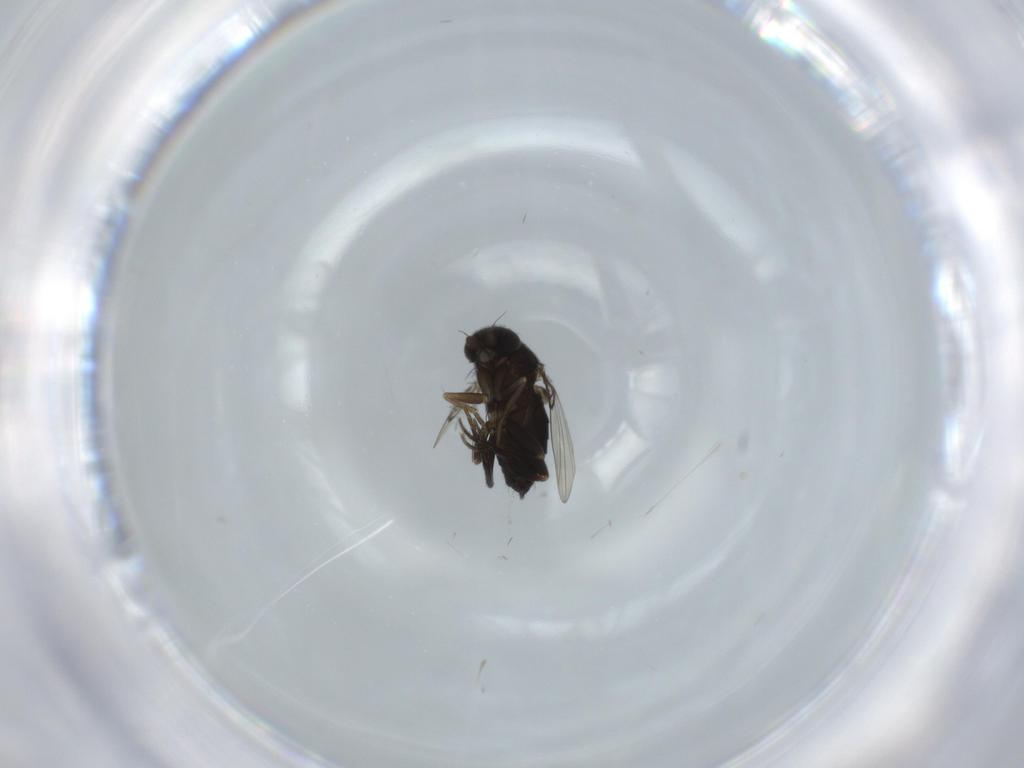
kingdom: Animalia
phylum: Arthropoda
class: Insecta
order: Diptera
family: Phoridae
